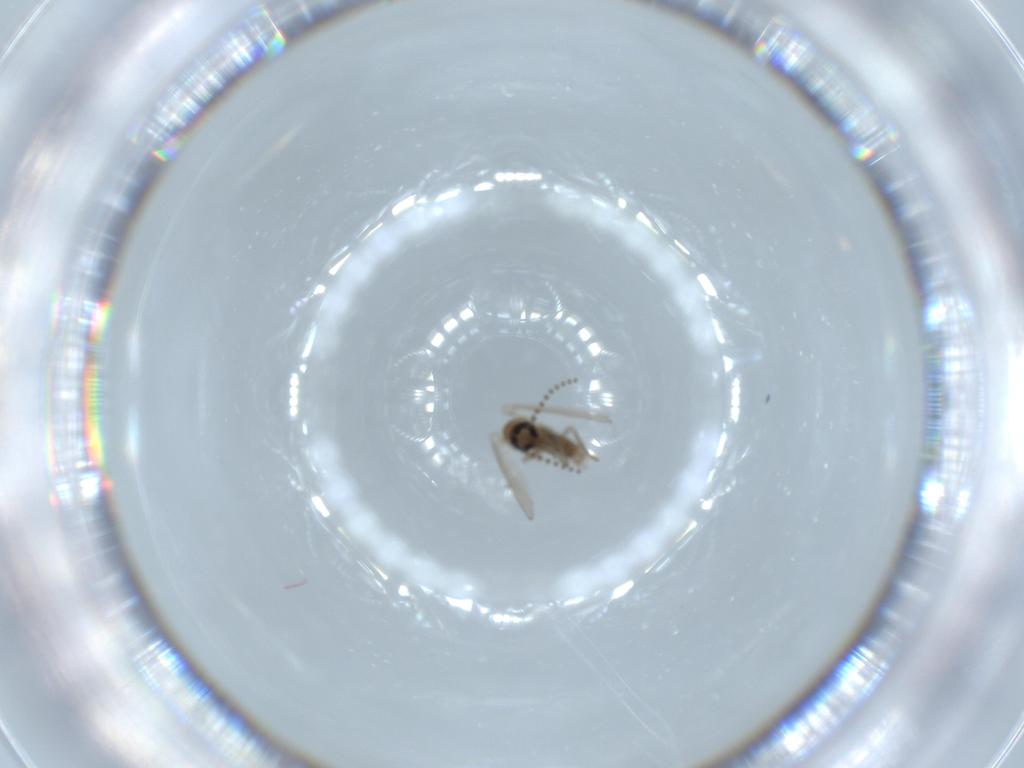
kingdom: Animalia
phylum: Arthropoda
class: Insecta
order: Diptera
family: Psychodidae
